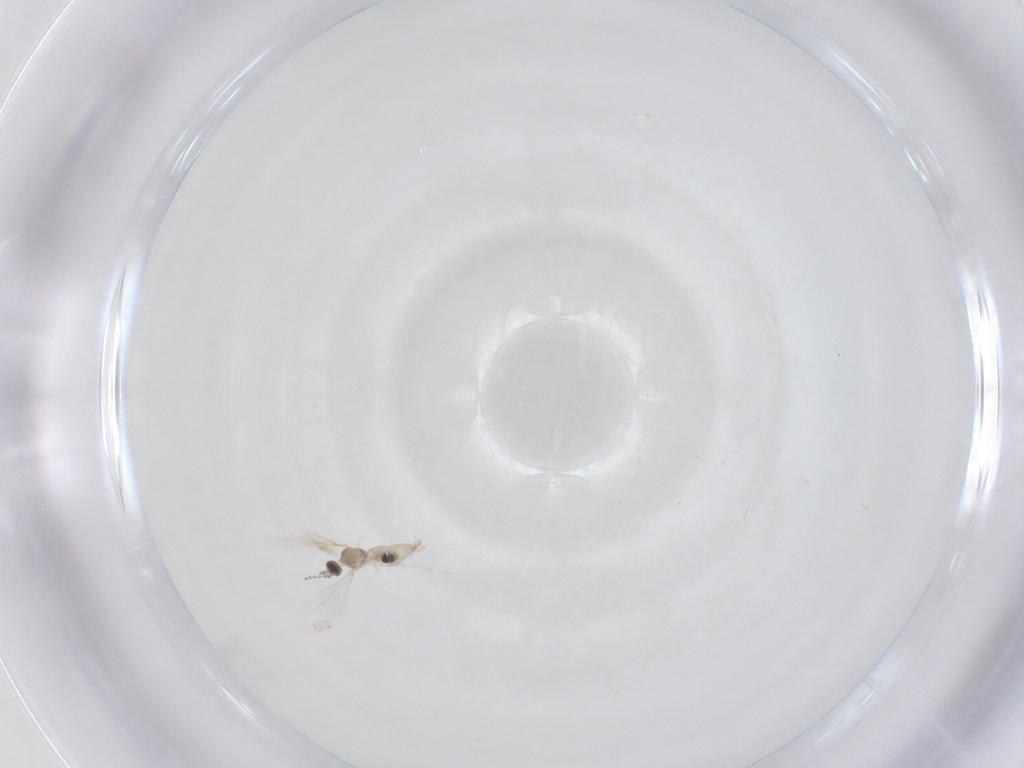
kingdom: Animalia
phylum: Arthropoda
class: Insecta
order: Diptera
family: Cecidomyiidae
